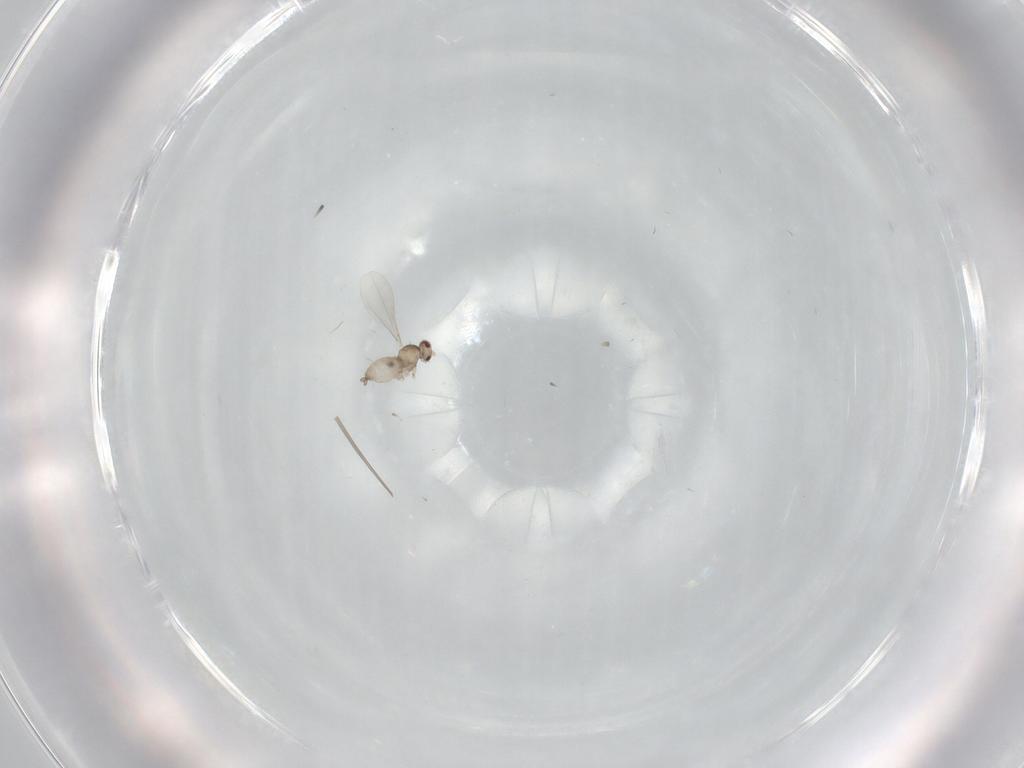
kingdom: Animalia
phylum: Arthropoda
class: Insecta
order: Diptera
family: Cecidomyiidae
